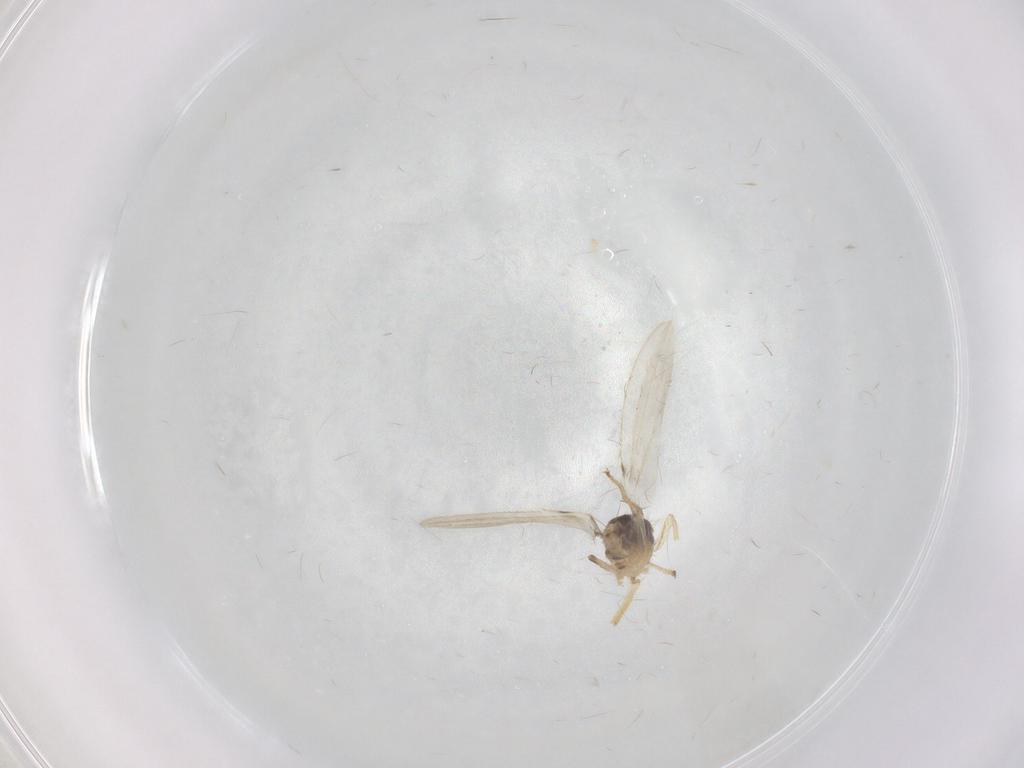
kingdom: Animalia
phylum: Arthropoda
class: Insecta
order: Diptera
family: Periscelididae
